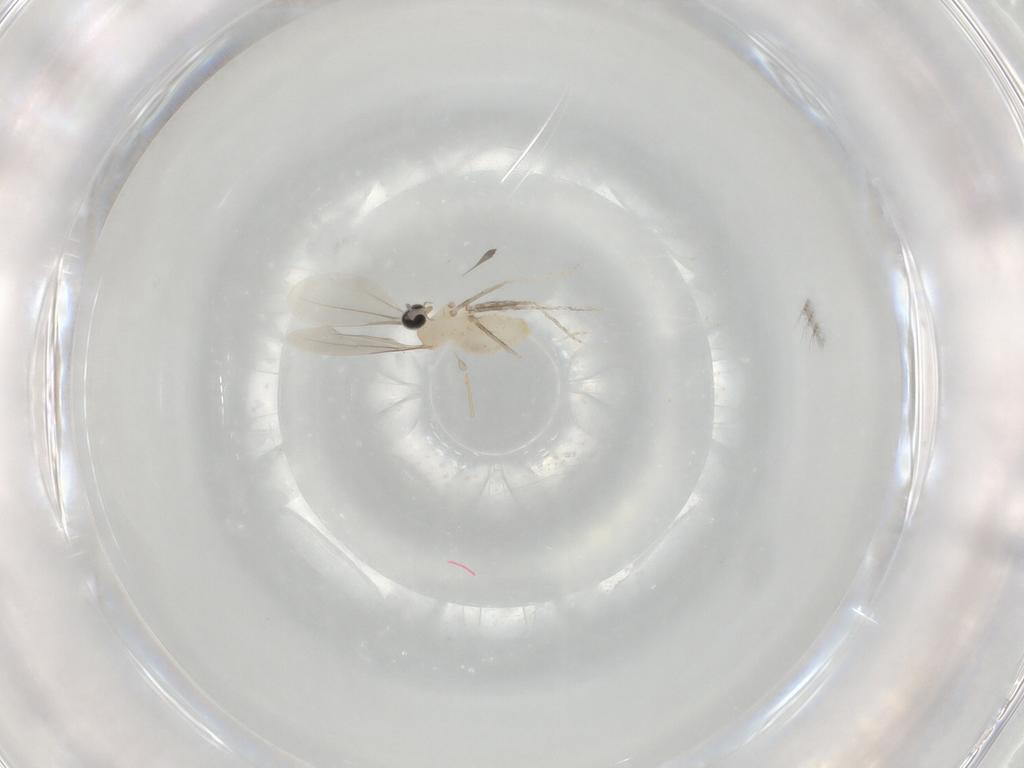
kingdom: Animalia
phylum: Arthropoda
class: Insecta
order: Diptera
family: Cecidomyiidae
